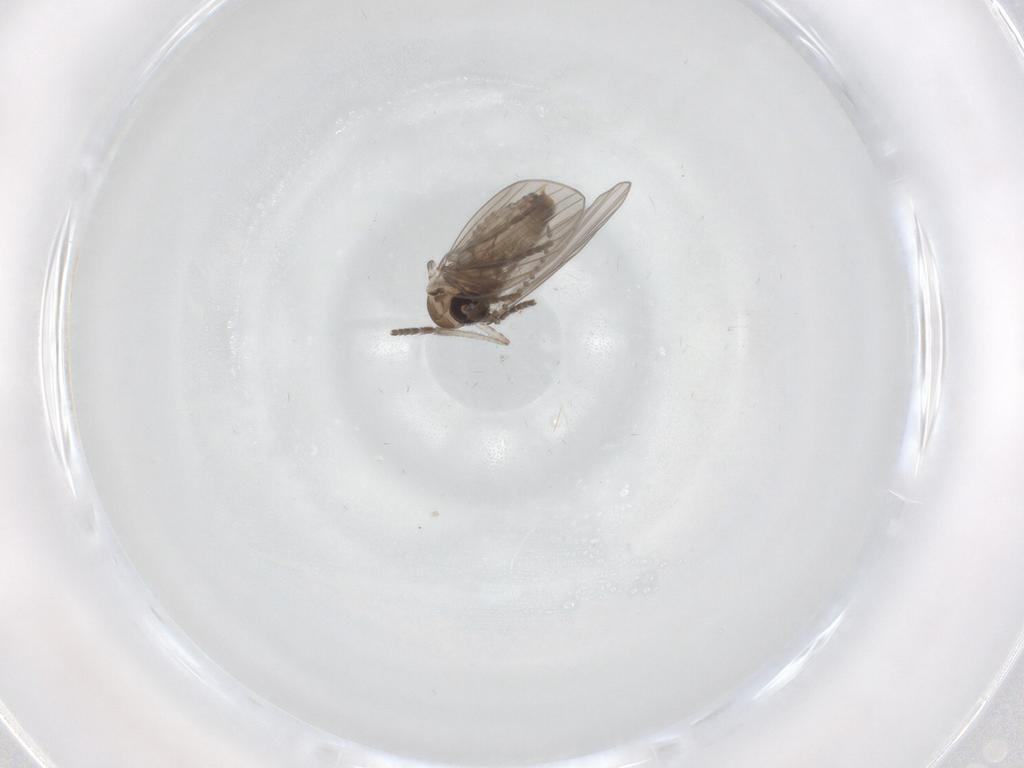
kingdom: Animalia
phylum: Arthropoda
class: Insecta
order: Diptera
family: Psychodidae
